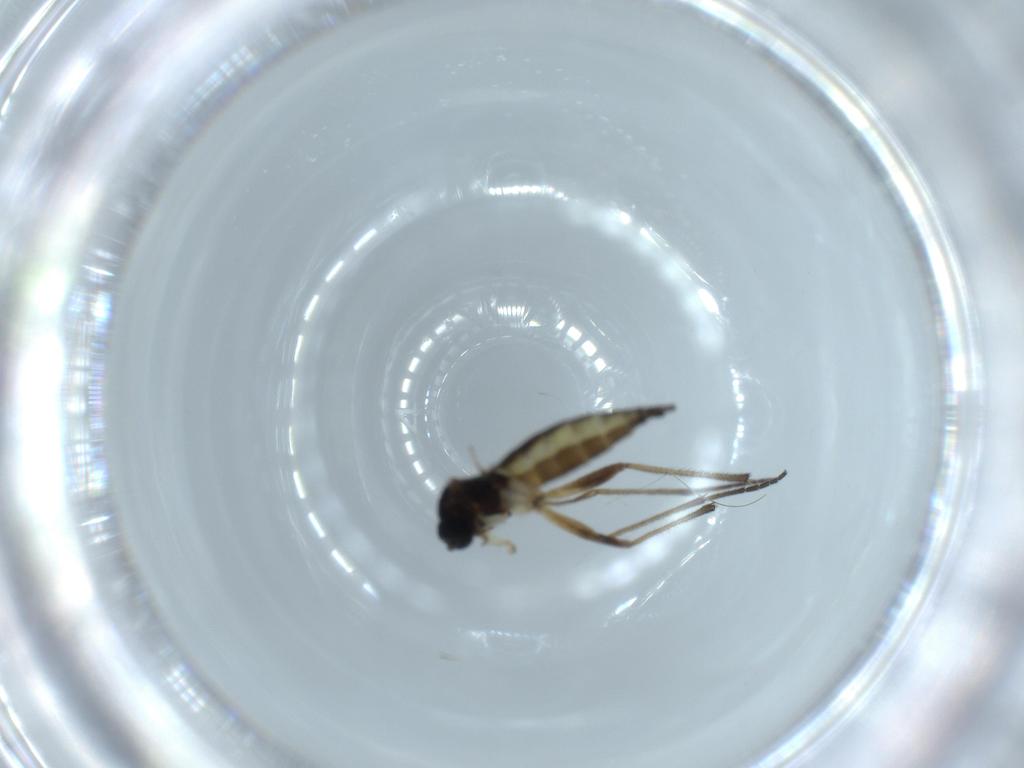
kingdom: Animalia
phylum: Arthropoda
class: Insecta
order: Diptera
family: Sciaridae
